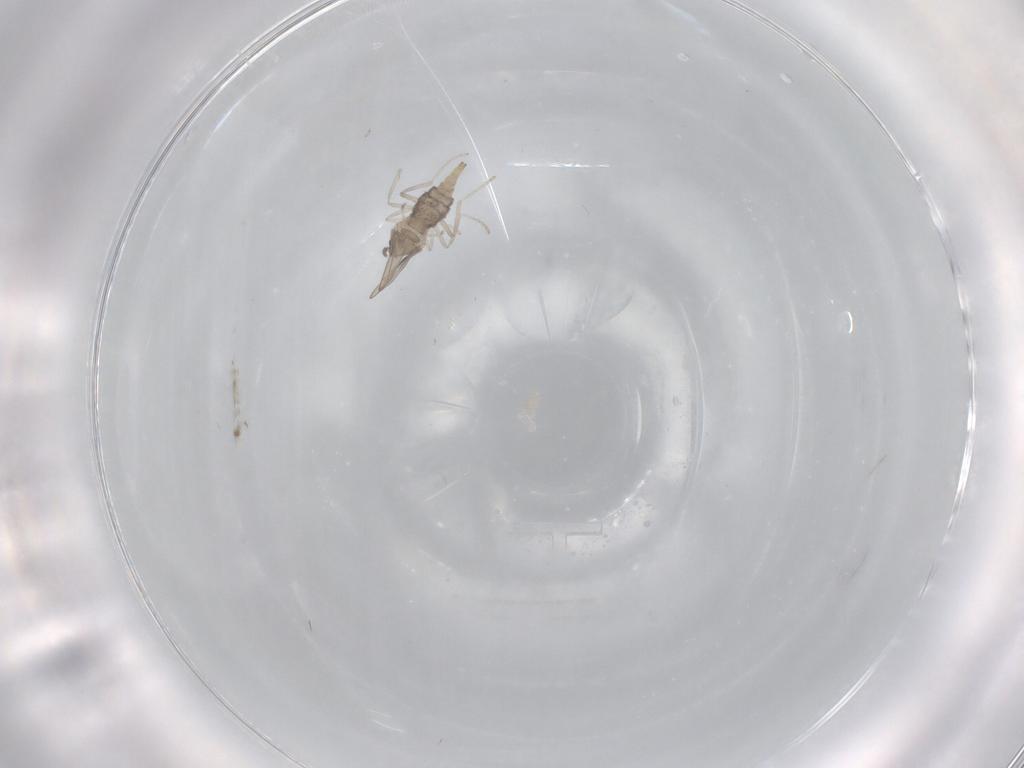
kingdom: Animalia
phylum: Arthropoda
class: Insecta
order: Diptera
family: Cecidomyiidae
